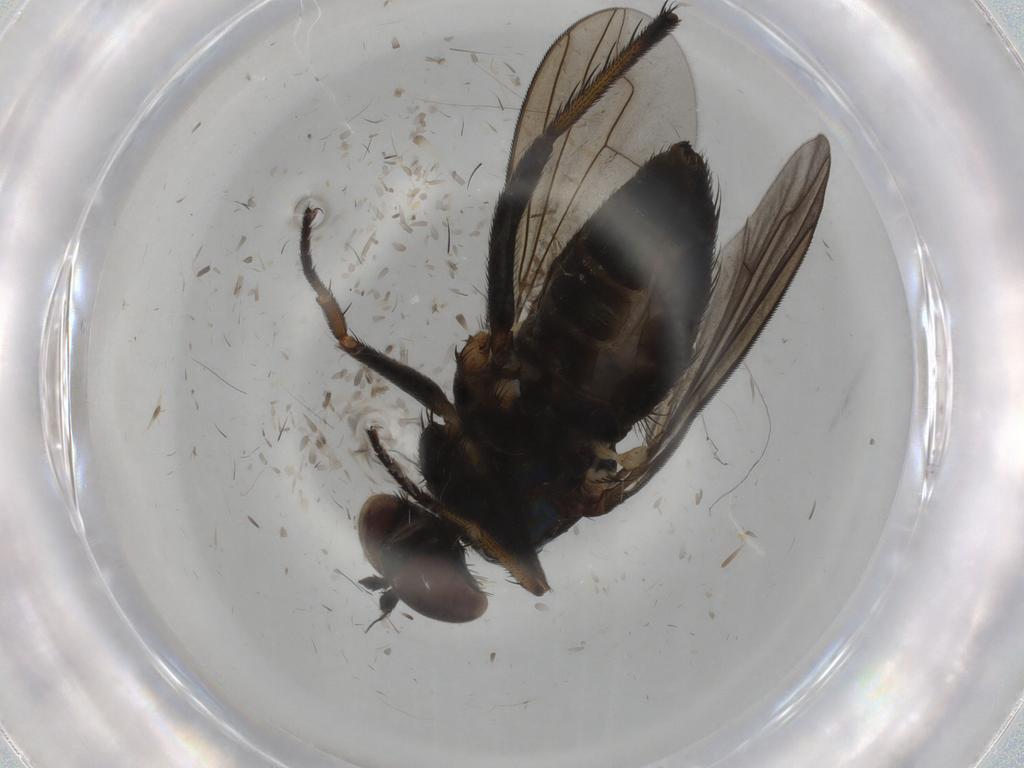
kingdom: Animalia
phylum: Arthropoda
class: Insecta
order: Diptera
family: Dolichopodidae
